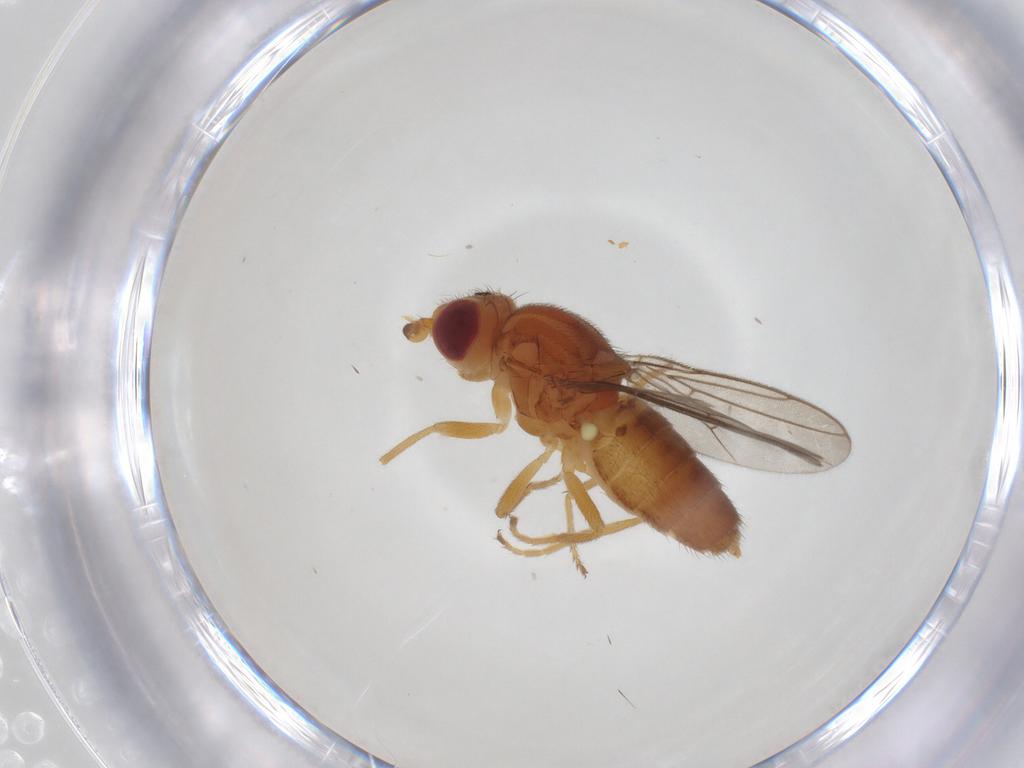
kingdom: Animalia
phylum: Arthropoda
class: Insecta
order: Diptera
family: Chloropidae
